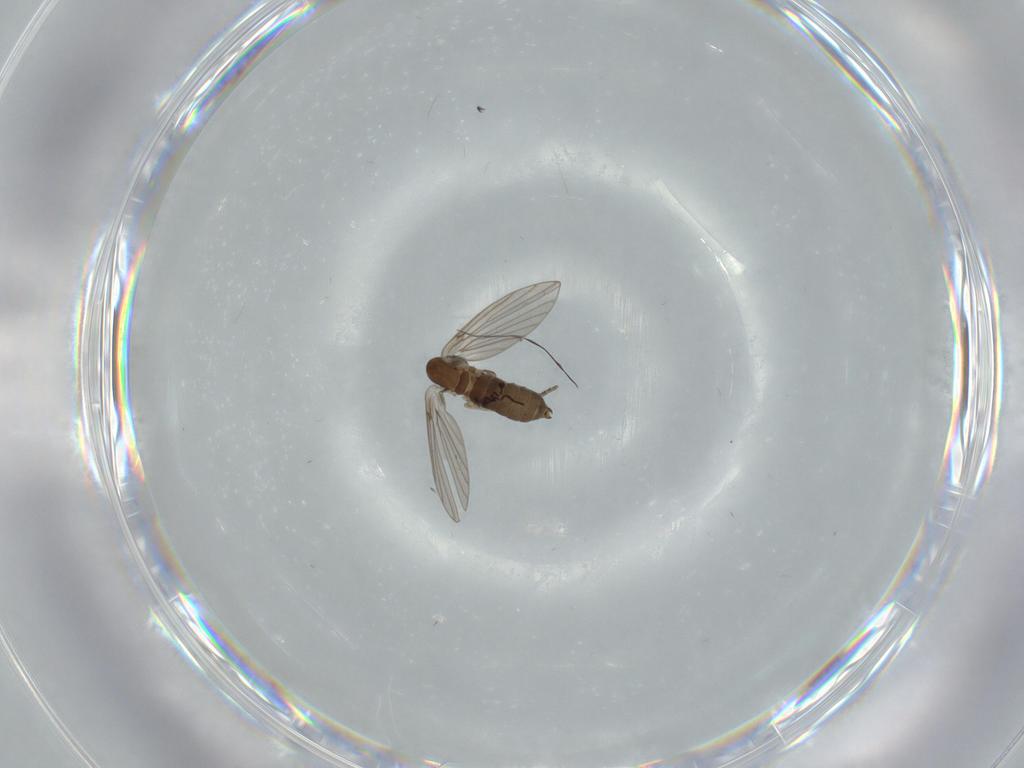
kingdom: Animalia
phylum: Arthropoda
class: Insecta
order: Diptera
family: Psychodidae
